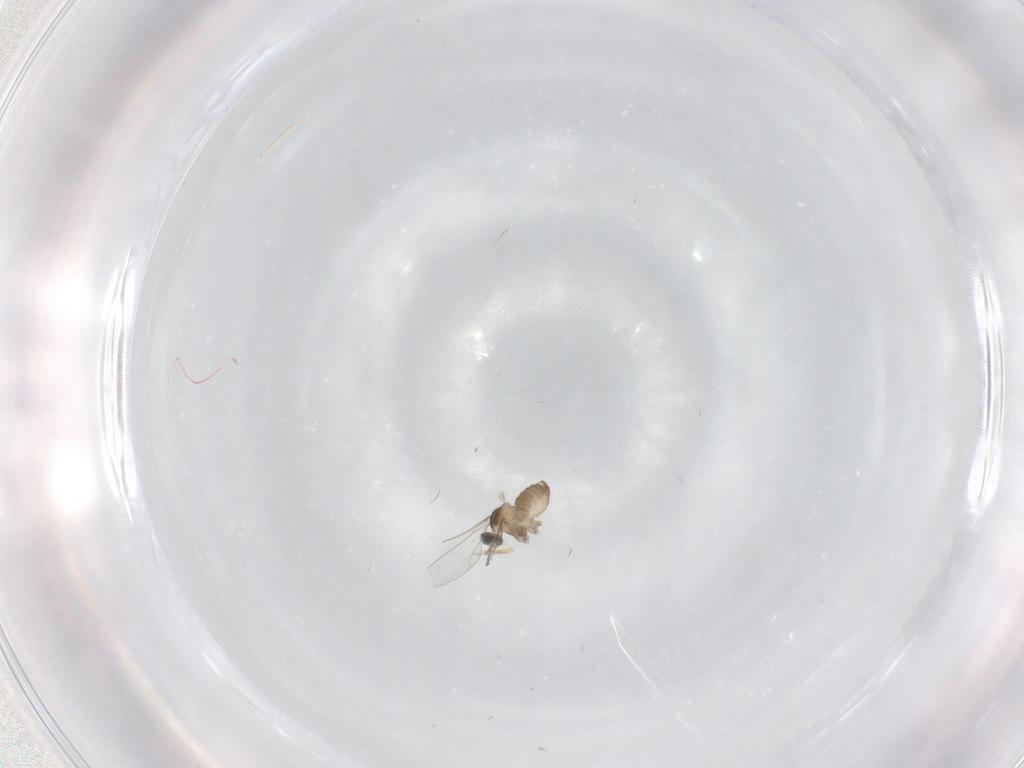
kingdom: Animalia
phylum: Arthropoda
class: Insecta
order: Diptera
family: Cecidomyiidae
